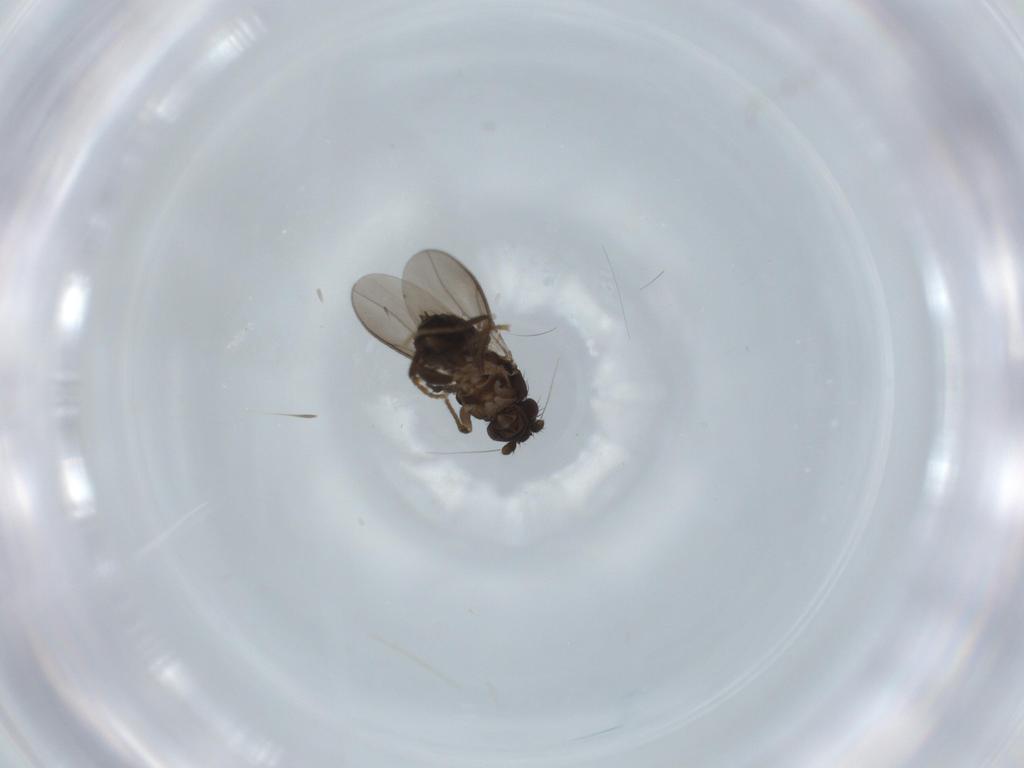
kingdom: Animalia
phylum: Arthropoda
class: Insecta
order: Diptera
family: Sphaeroceridae
